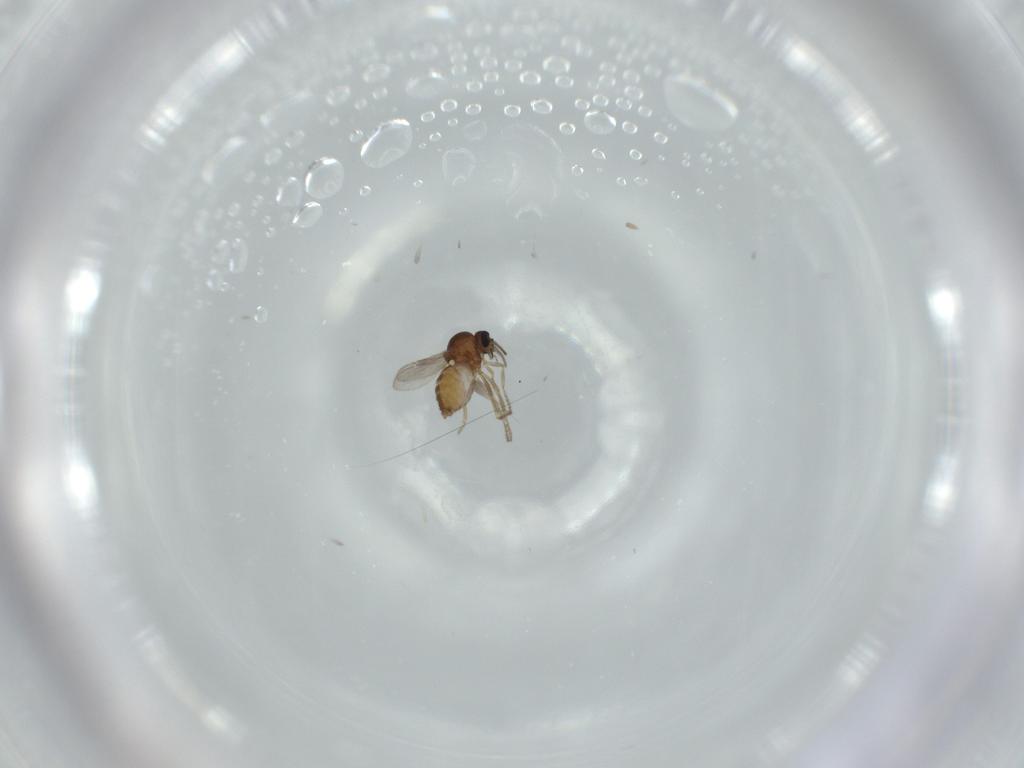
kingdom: Animalia
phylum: Arthropoda
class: Insecta
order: Diptera
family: Ceratopogonidae
